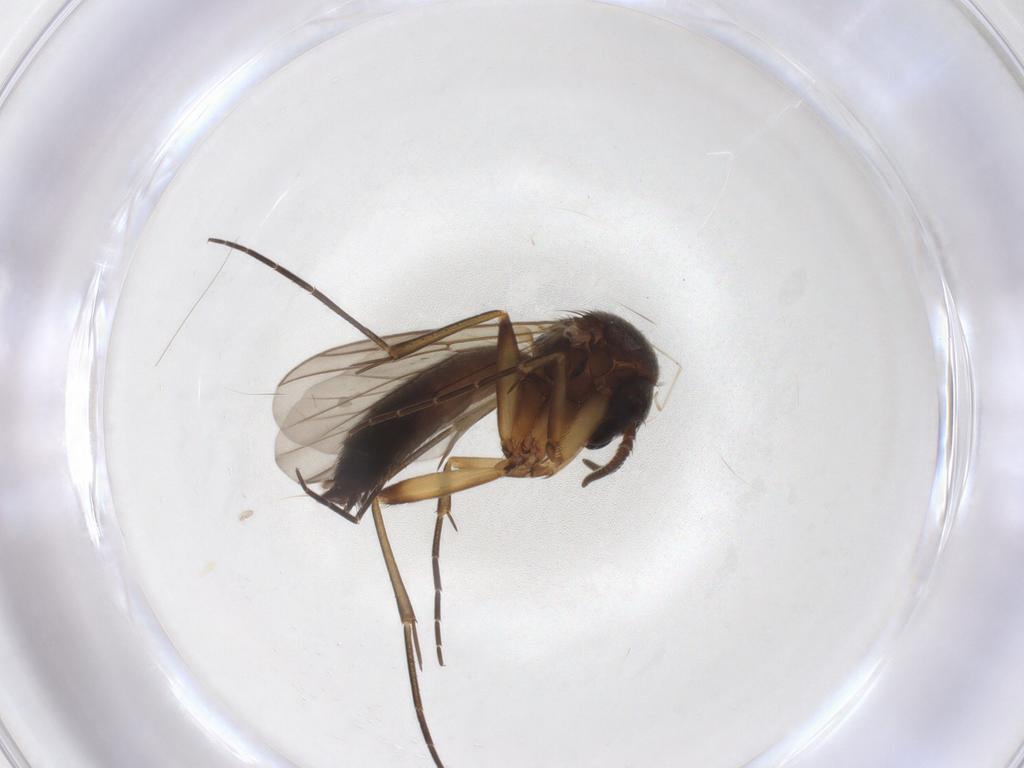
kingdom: Animalia
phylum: Arthropoda
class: Insecta
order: Diptera
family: Mycetophilidae
